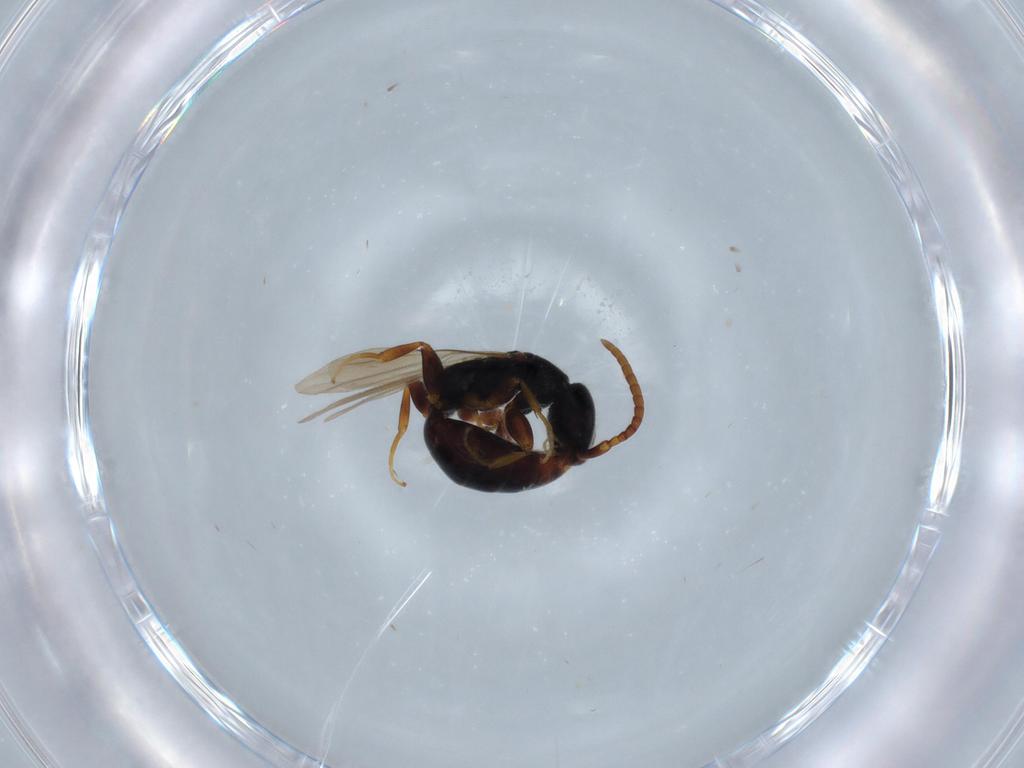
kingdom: Animalia
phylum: Arthropoda
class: Insecta
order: Hymenoptera
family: Bethylidae
